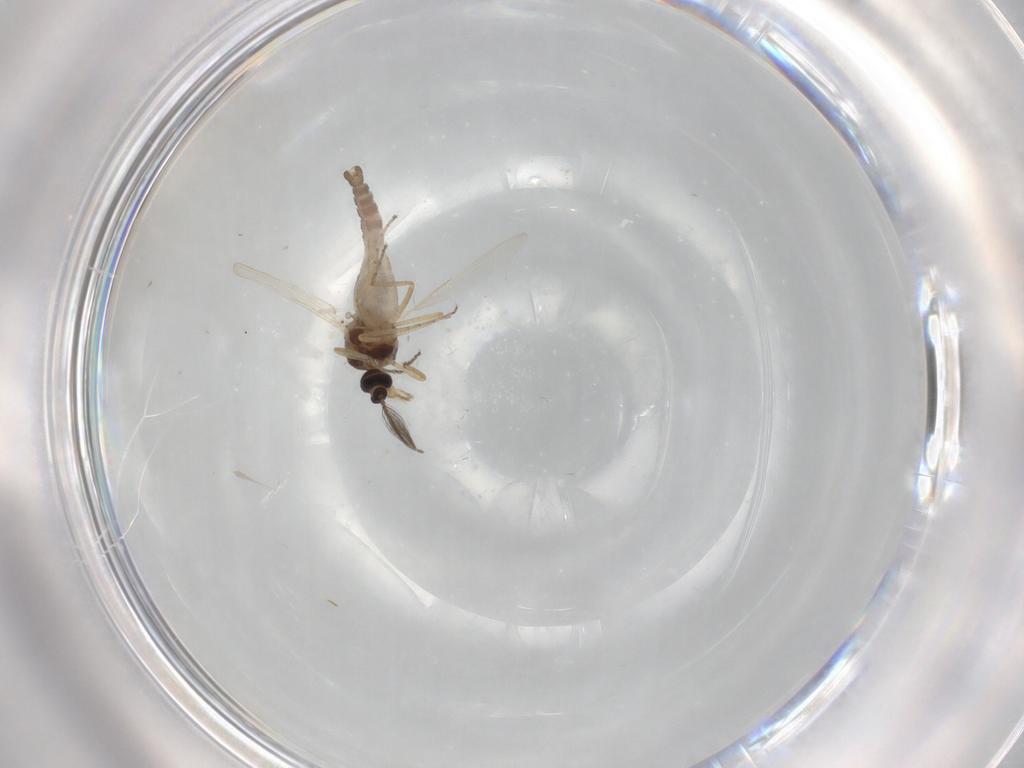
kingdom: Animalia
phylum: Arthropoda
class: Insecta
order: Diptera
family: Ceratopogonidae
